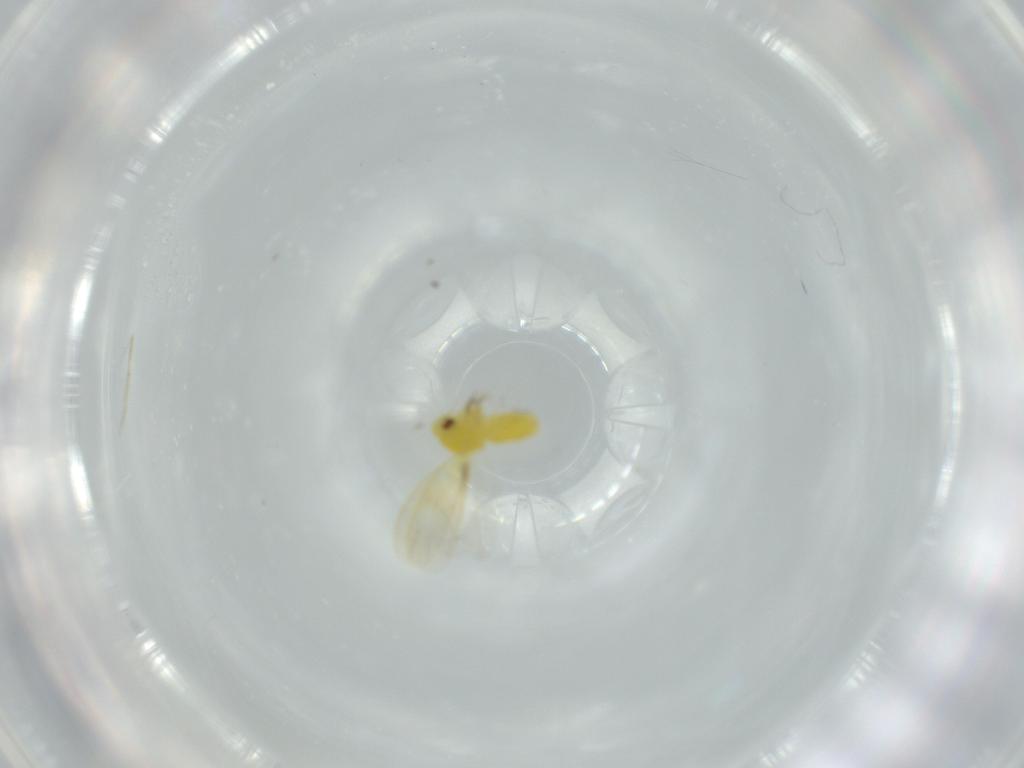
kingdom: Animalia
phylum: Arthropoda
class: Insecta
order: Hemiptera
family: Aleyrodidae
